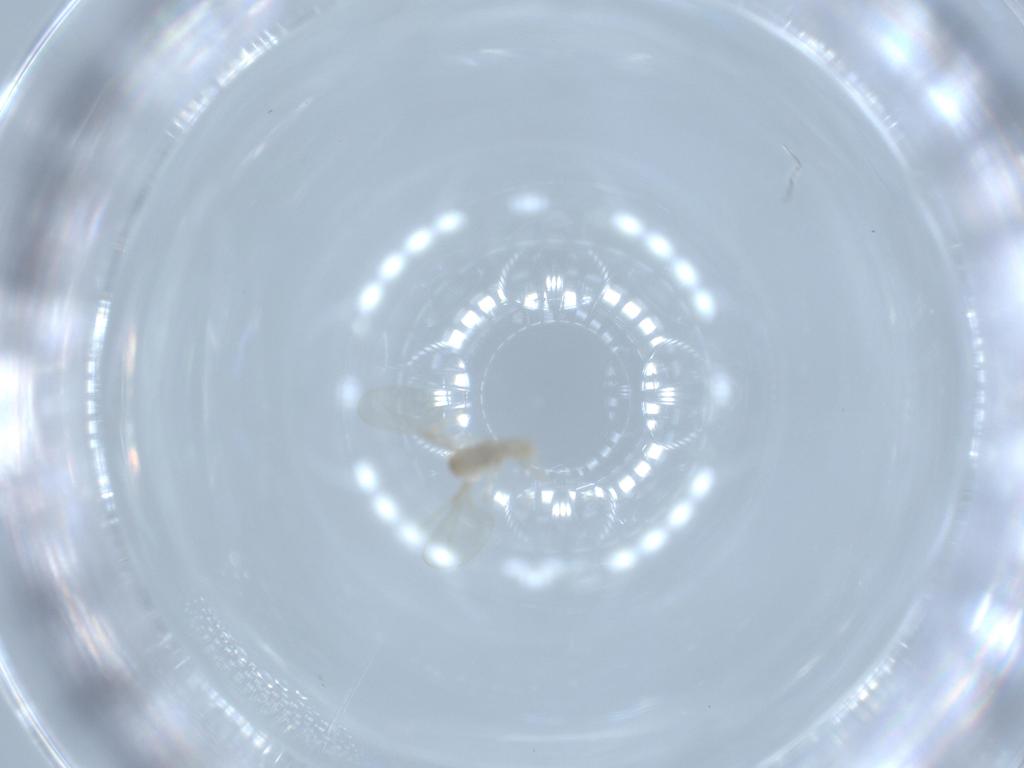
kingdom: Animalia
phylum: Arthropoda
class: Insecta
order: Diptera
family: Cecidomyiidae
